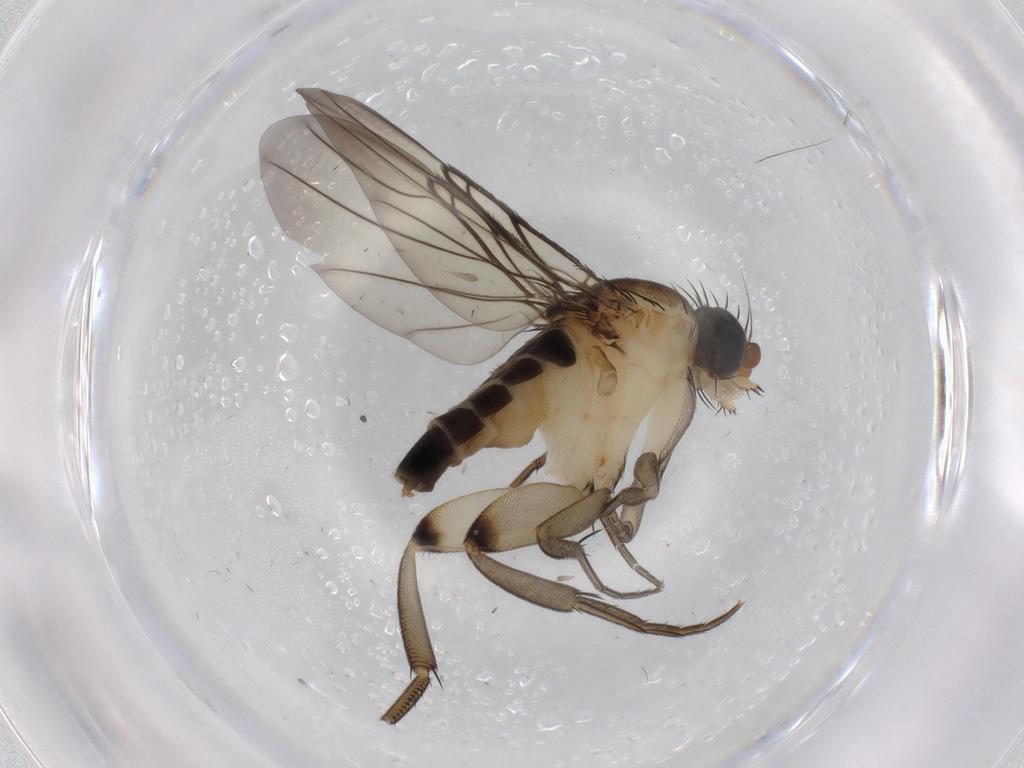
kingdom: Animalia
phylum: Arthropoda
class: Insecta
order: Diptera
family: Phoridae
